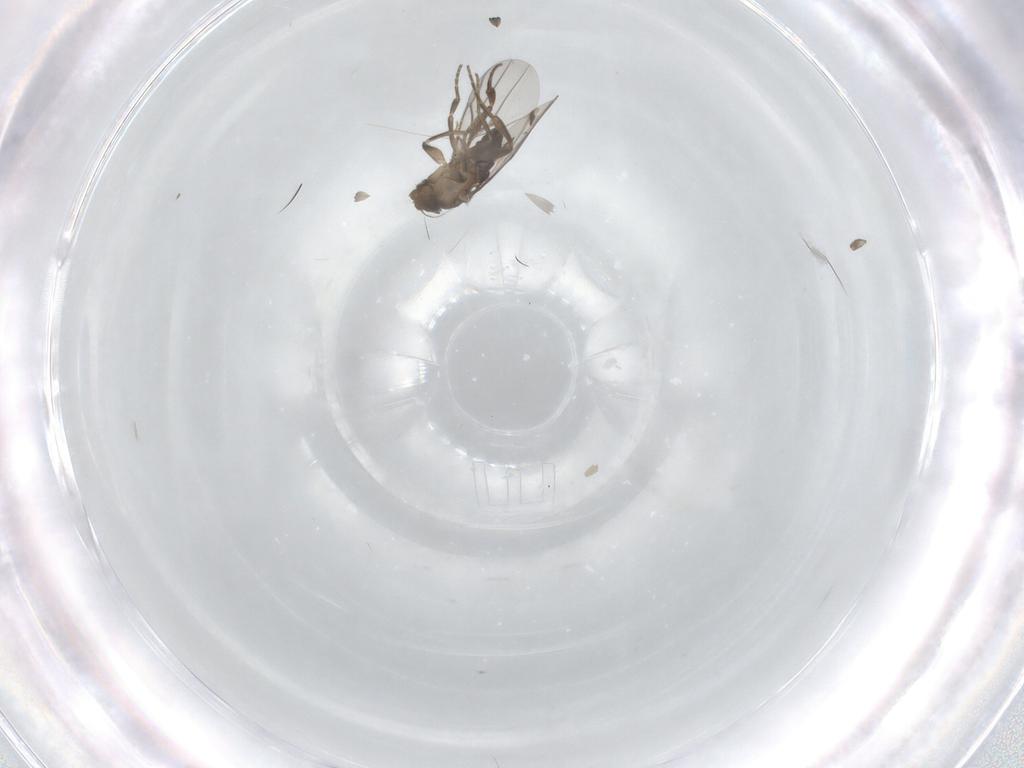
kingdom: Animalia
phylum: Arthropoda
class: Insecta
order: Diptera
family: Phoridae
